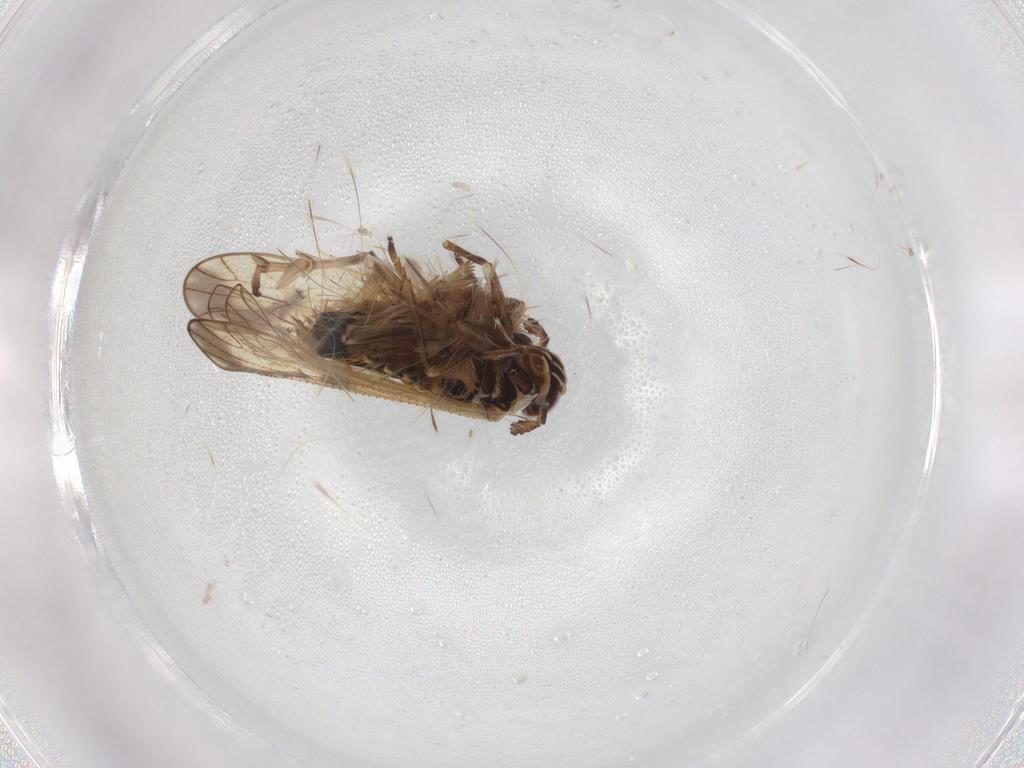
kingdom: Animalia
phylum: Arthropoda
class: Insecta
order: Hemiptera
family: Delphacidae
